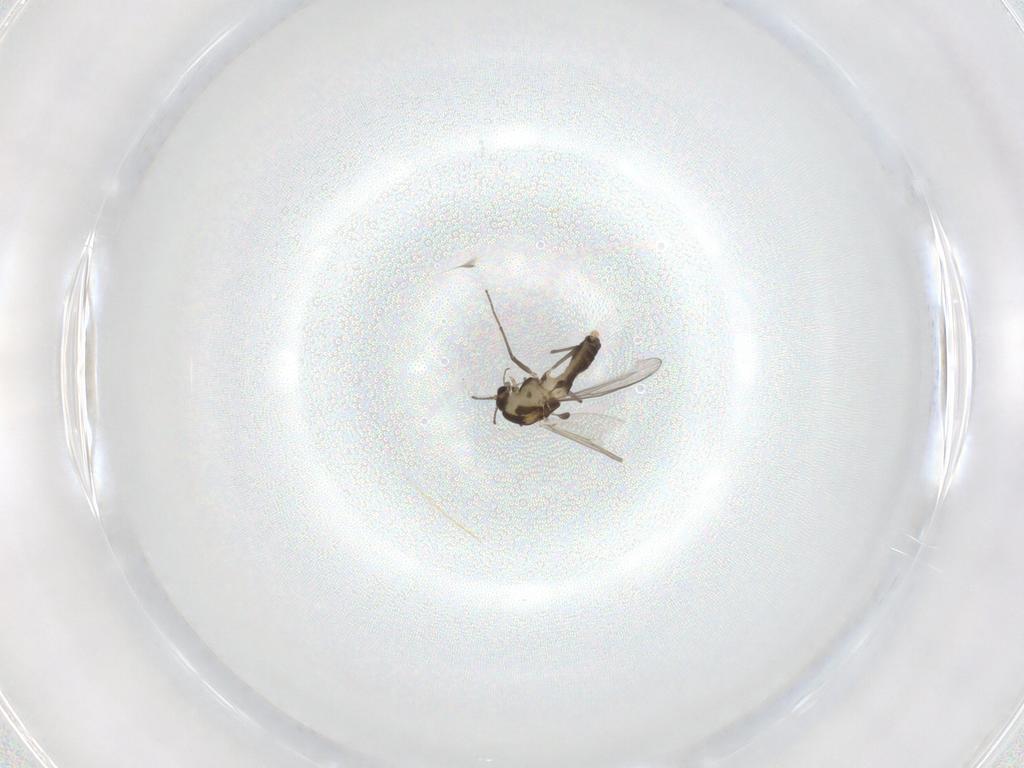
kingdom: Animalia
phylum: Arthropoda
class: Insecta
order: Diptera
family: Chironomidae
